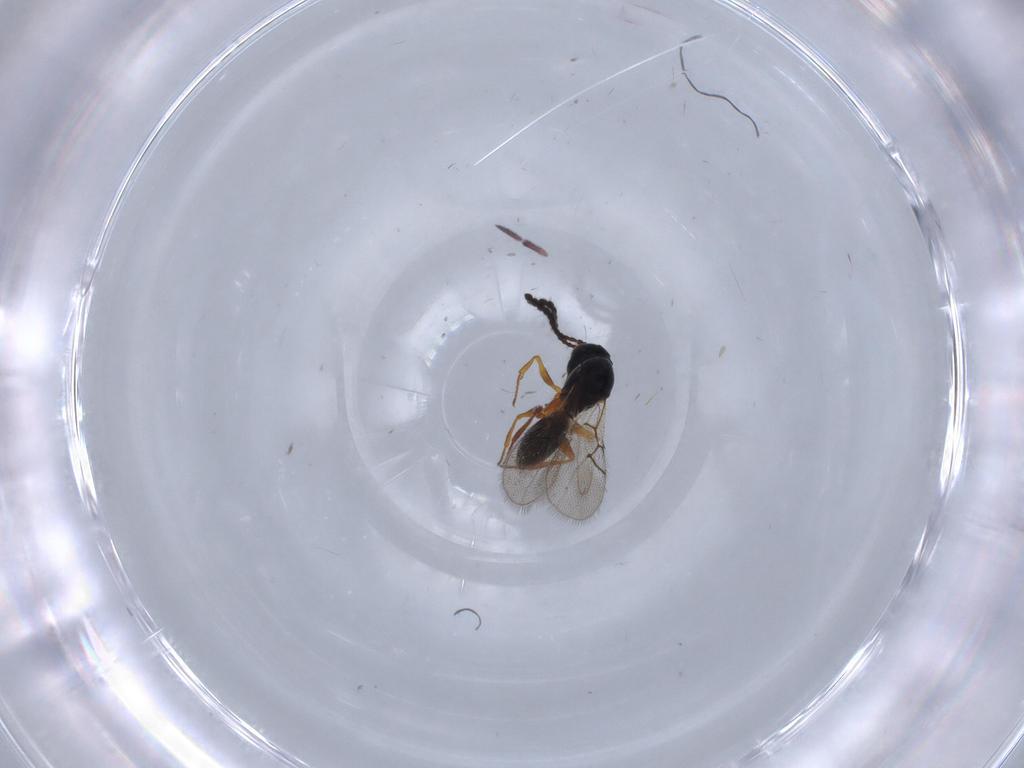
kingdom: Animalia
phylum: Arthropoda
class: Insecta
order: Hymenoptera
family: Figitidae
